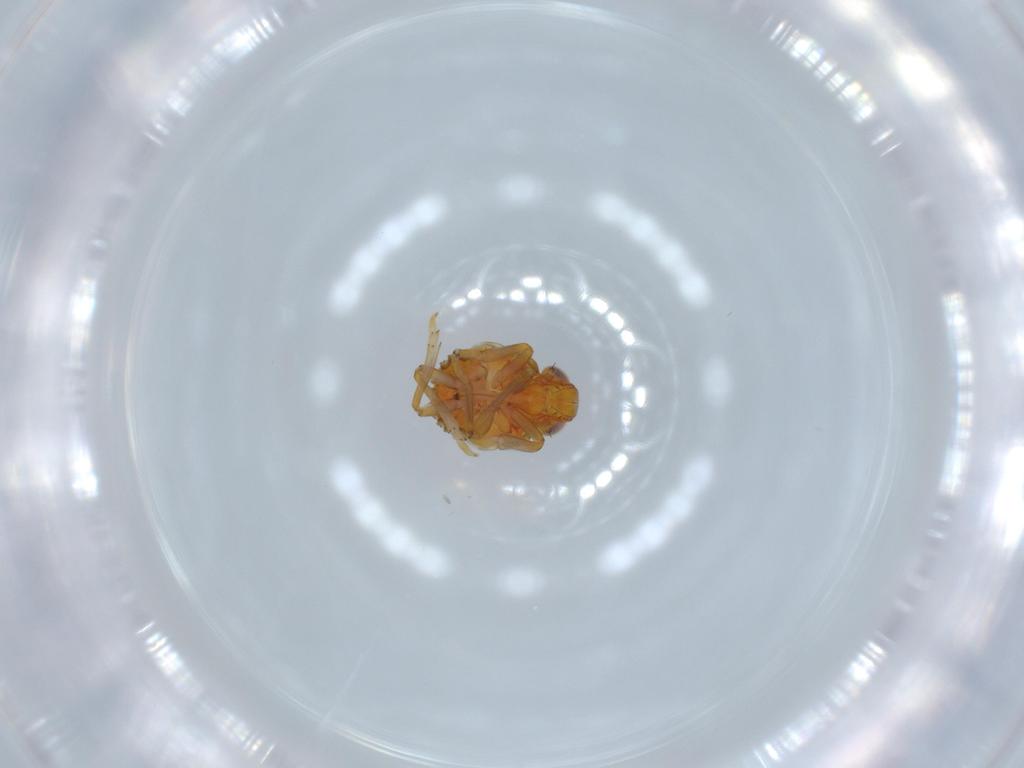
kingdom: Animalia
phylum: Arthropoda
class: Insecta
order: Hemiptera
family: Issidae
